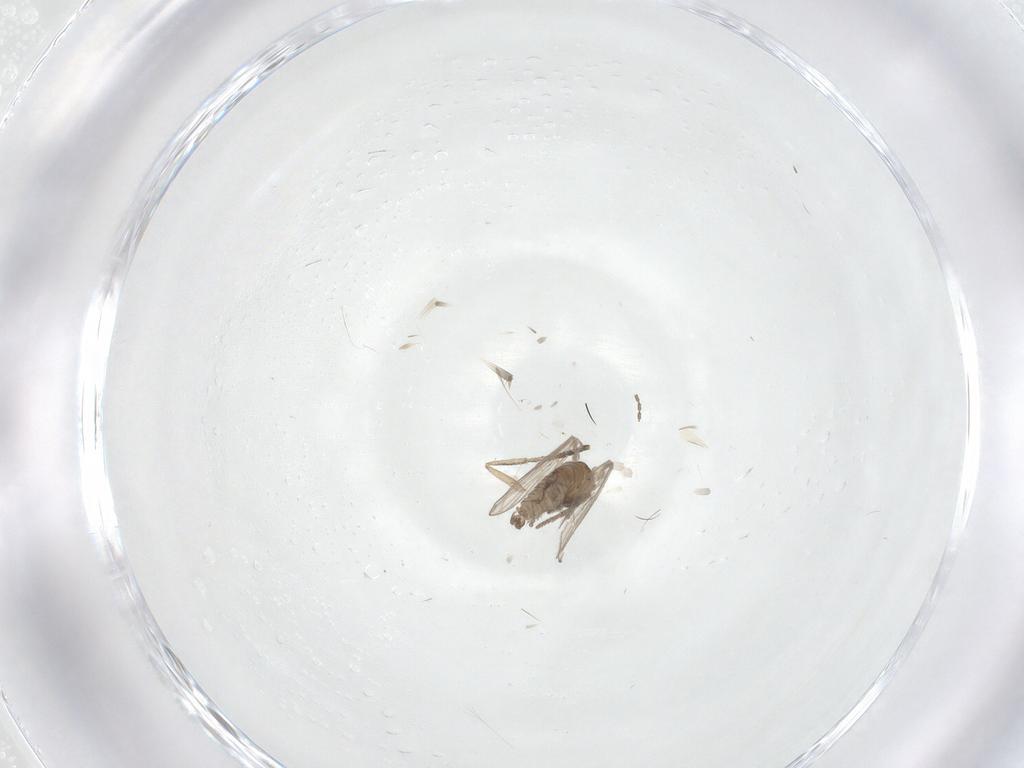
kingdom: Animalia
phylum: Arthropoda
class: Insecta
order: Diptera
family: Psychodidae
